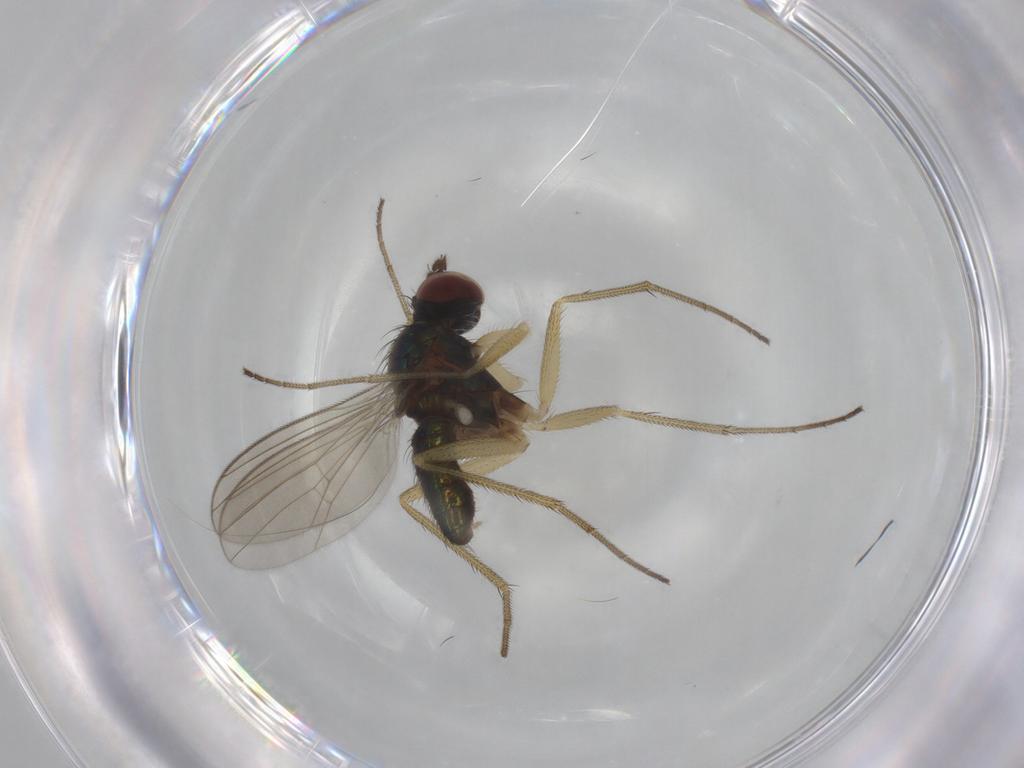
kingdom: Animalia
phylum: Arthropoda
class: Insecta
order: Diptera
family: Dolichopodidae
